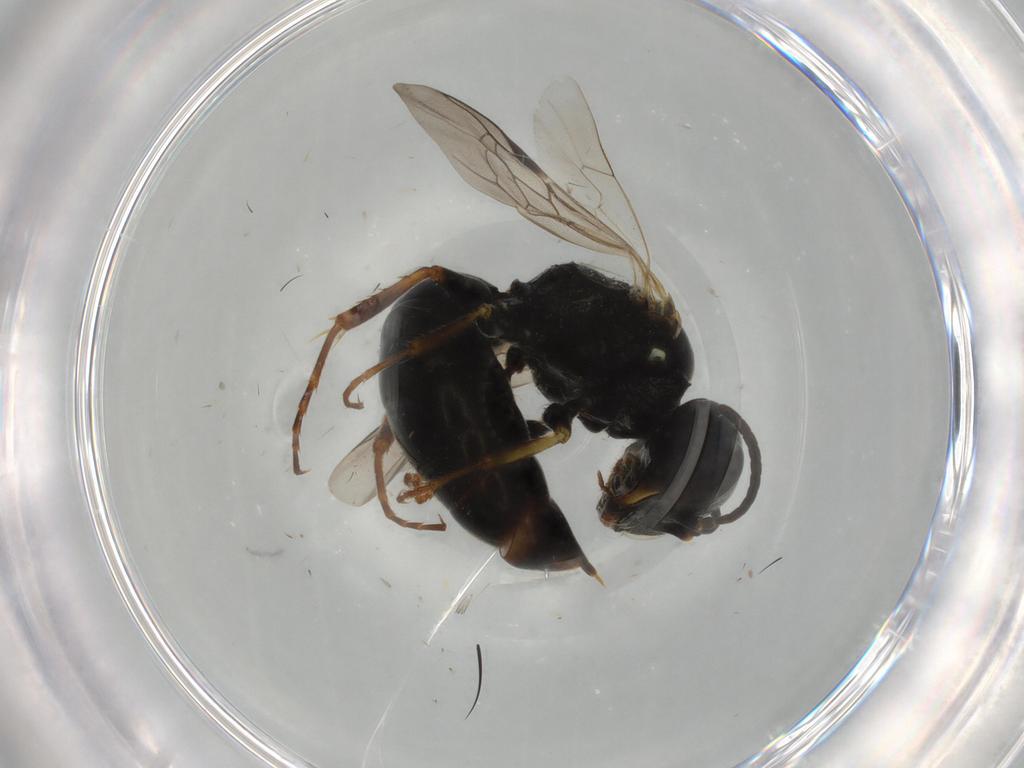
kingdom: Animalia
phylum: Arthropoda
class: Insecta
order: Hymenoptera
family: Crabronidae
